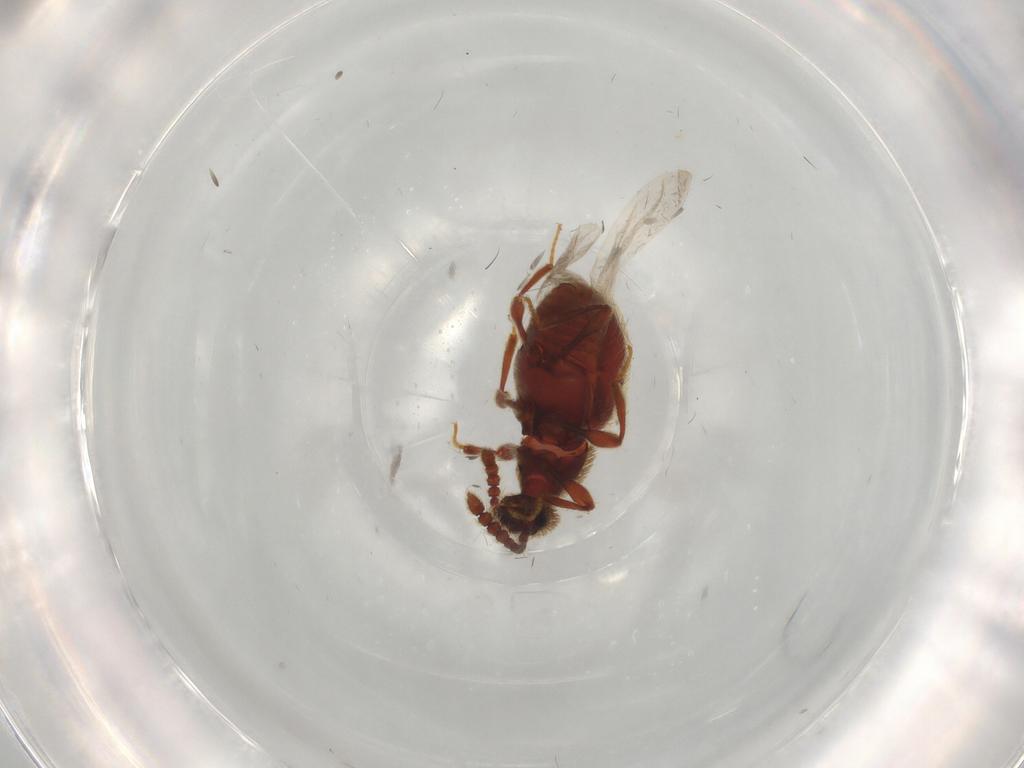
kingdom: Animalia
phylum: Arthropoda
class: Insecta
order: Coleoptera
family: Staphylinidae
